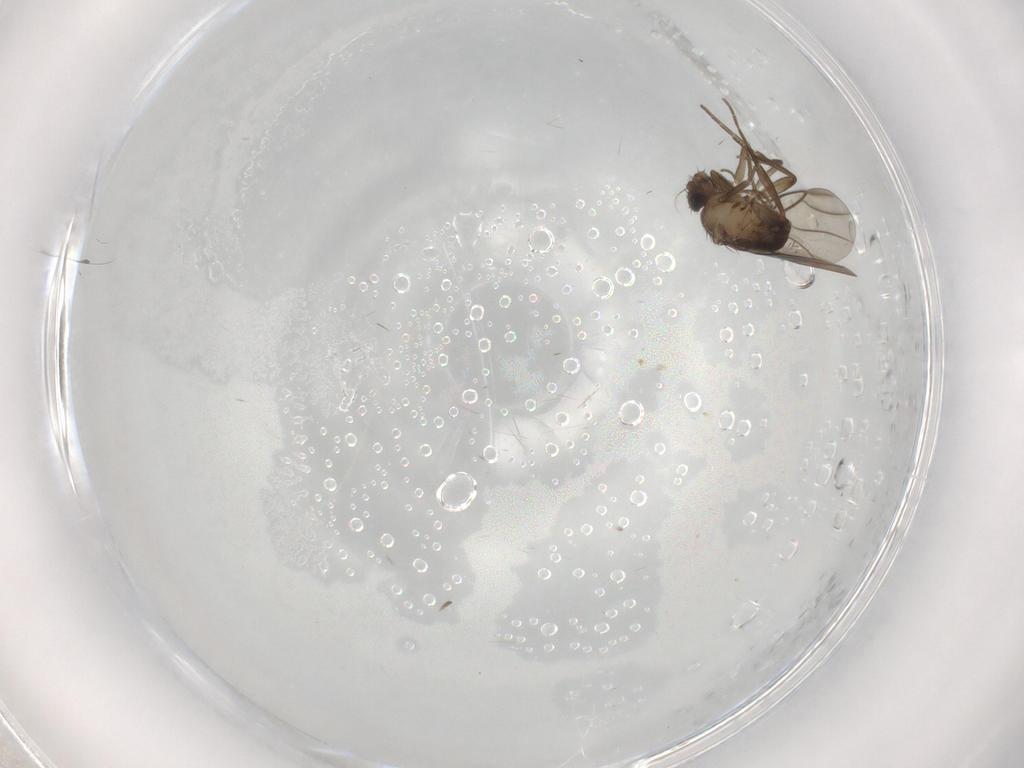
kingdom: Animalia
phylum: Arthropoda
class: Insecta
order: Diptera
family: Phoridae
